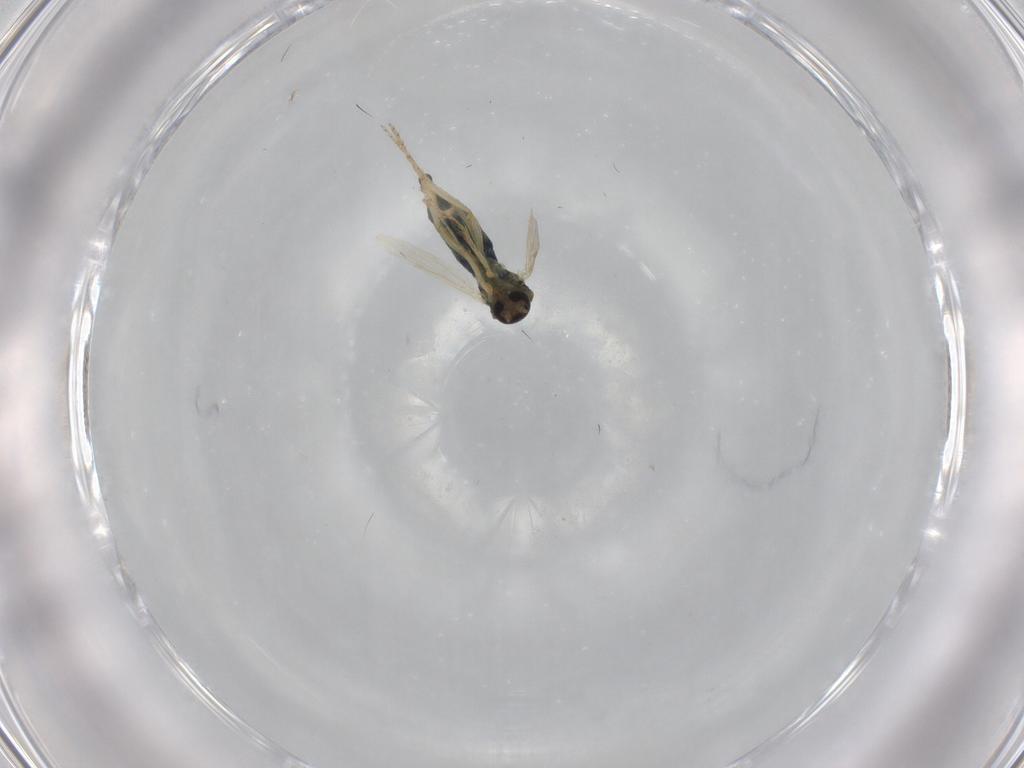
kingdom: Animalia
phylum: Arthropoda
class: Insecta
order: Diptera
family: Ceratopogonidae
